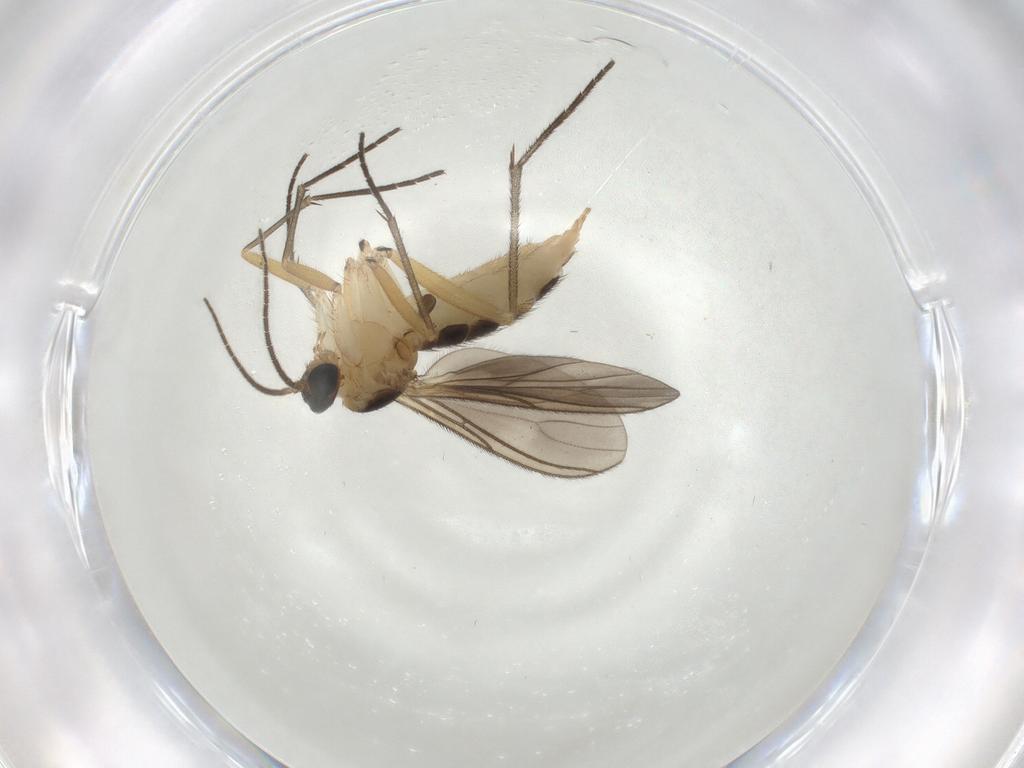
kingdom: Animalia
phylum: Arthropoda
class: Insecta
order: Diptera
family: Sciaridae
